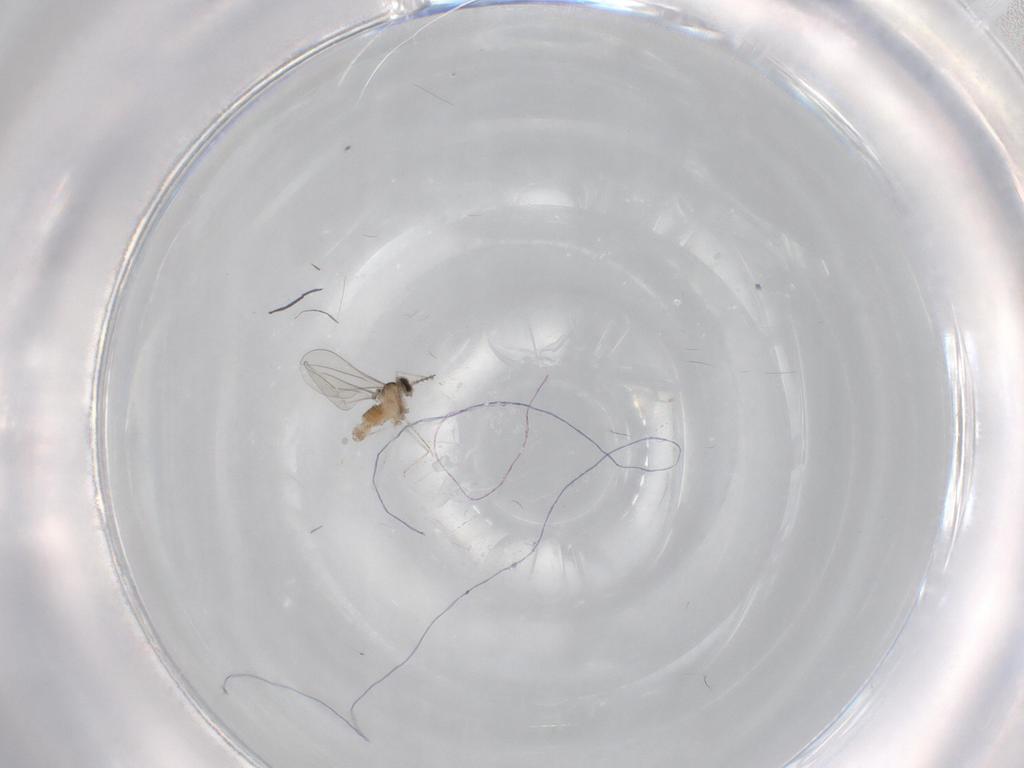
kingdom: Animalia
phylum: Arthropoda
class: Insecta
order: Diptera
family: Cecidomyiidae
